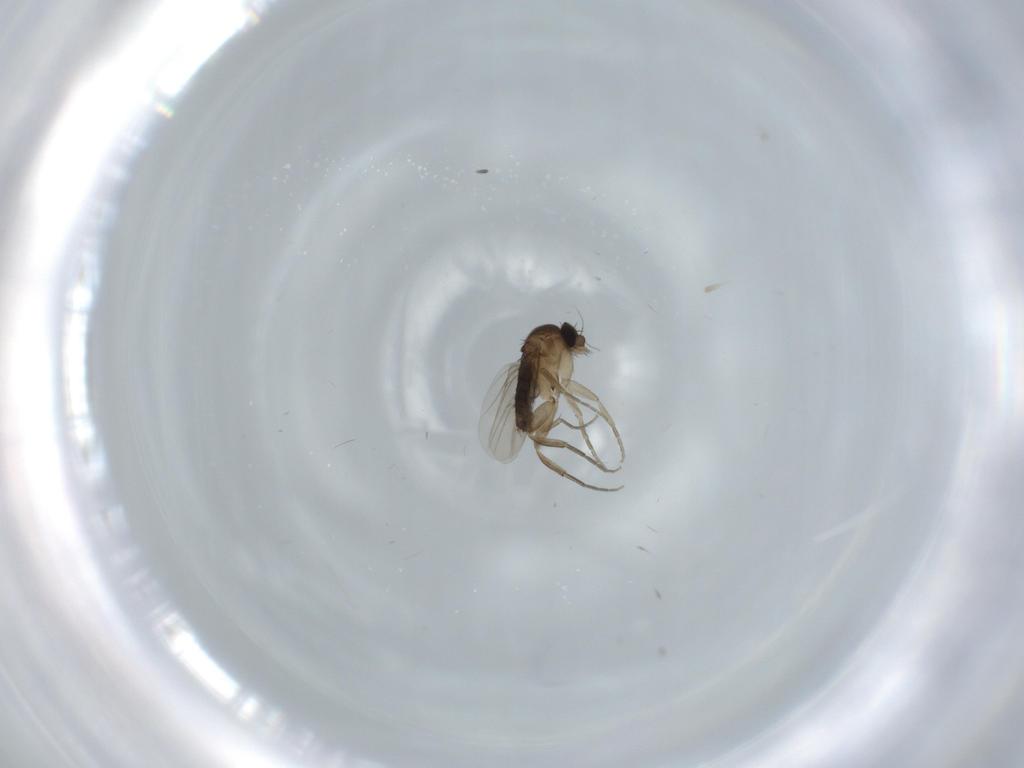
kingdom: Animalia
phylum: Arthropoda
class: Insecta
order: Diptera
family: Phoridae
